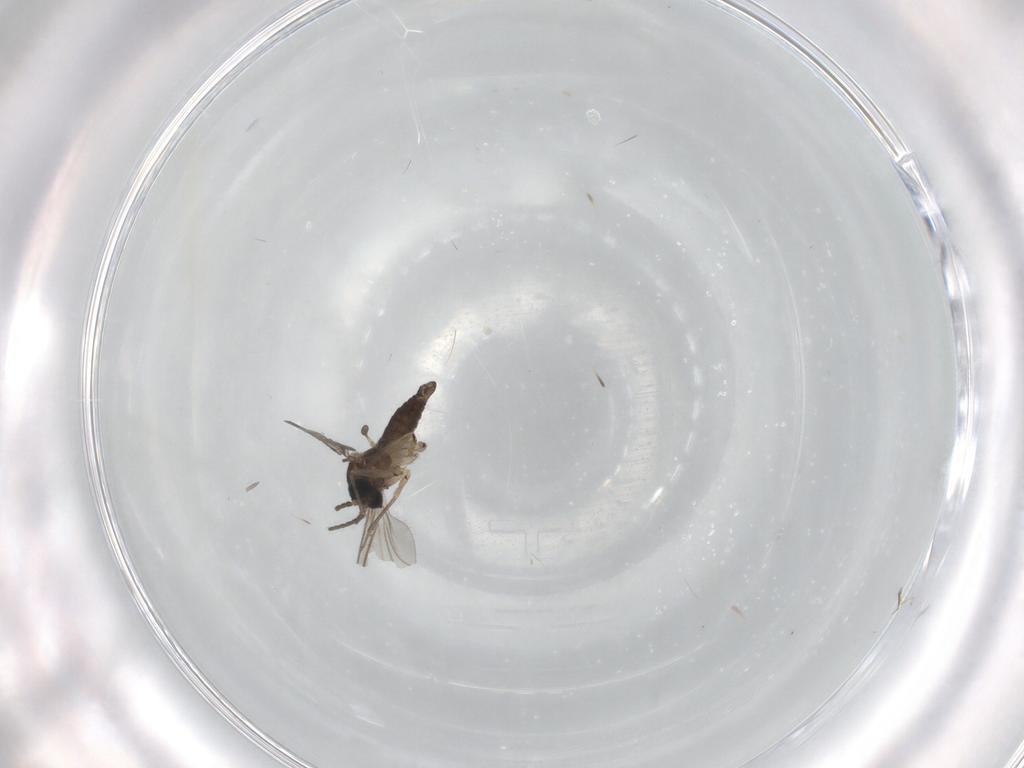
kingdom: Animalia
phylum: Arthropoda
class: Insecta
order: Diptera
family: Sciaridae
